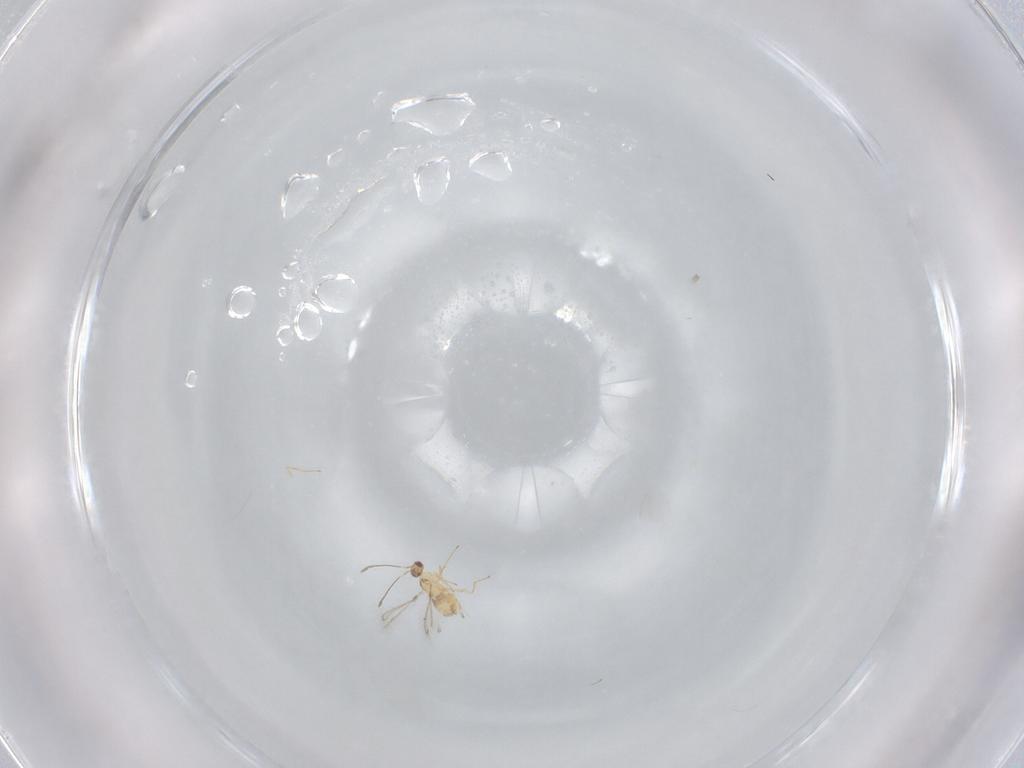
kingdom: Animalia
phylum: Arthropoda
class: Insecta
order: Hymenoptera
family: Mymaridae
